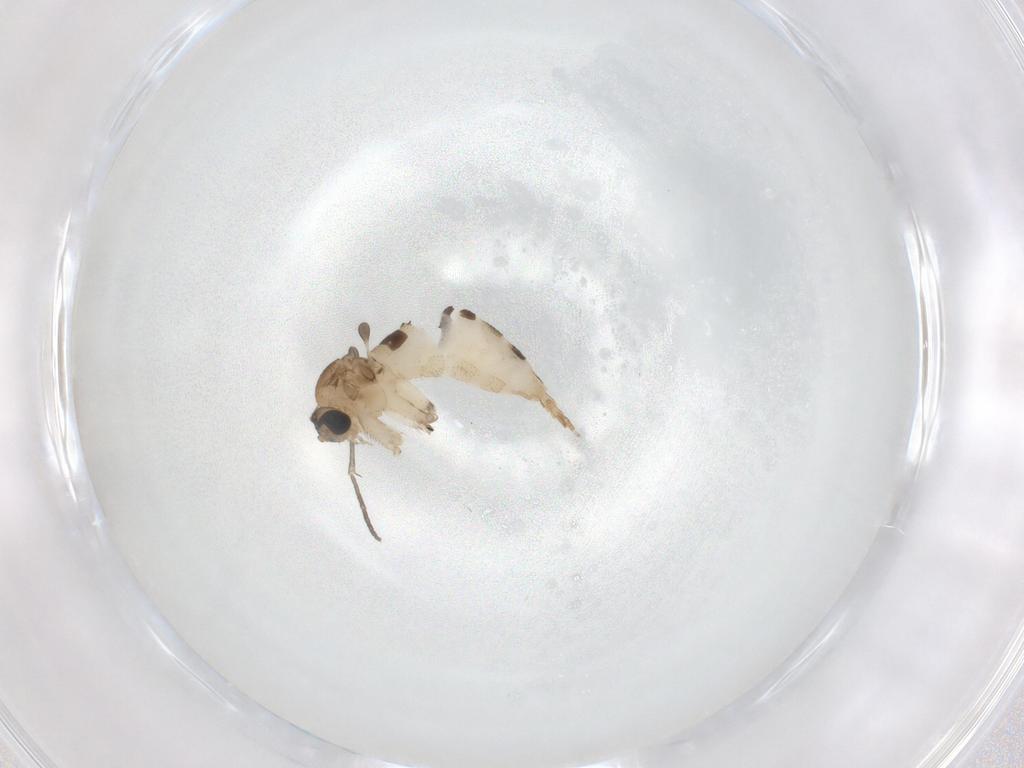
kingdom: Animalia
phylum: Arthropoda
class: Insecta
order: Diptera
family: Sciaridae
